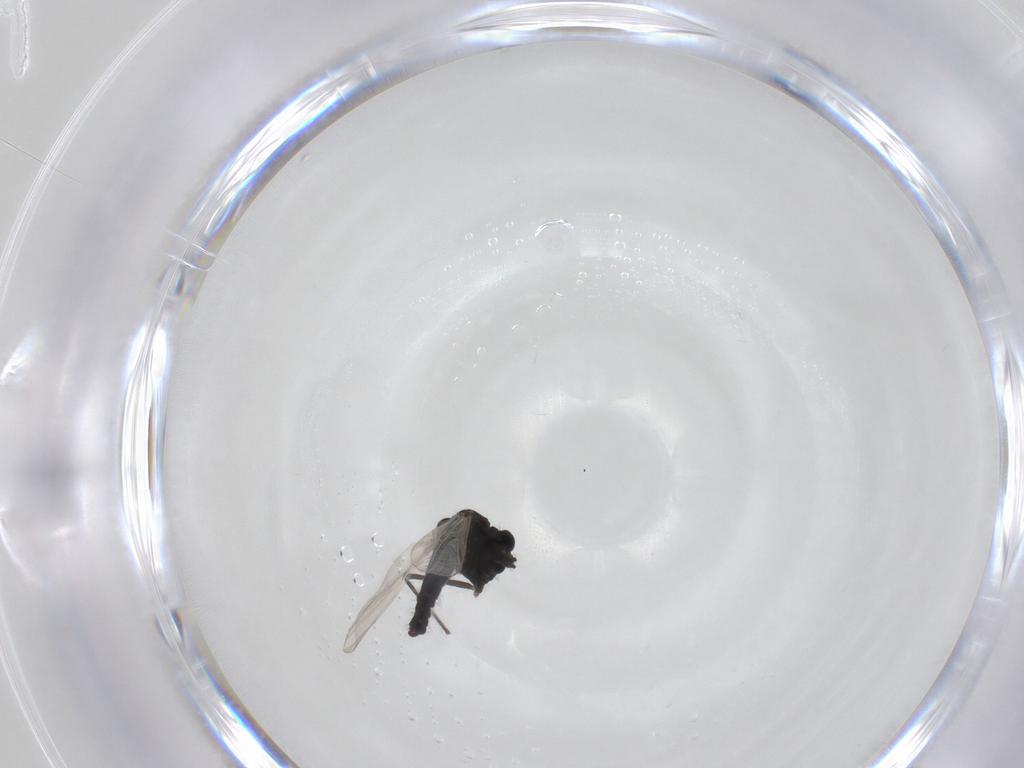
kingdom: Animalia
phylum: Arthropoda
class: Insecta
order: Diptera
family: Chironomidae
